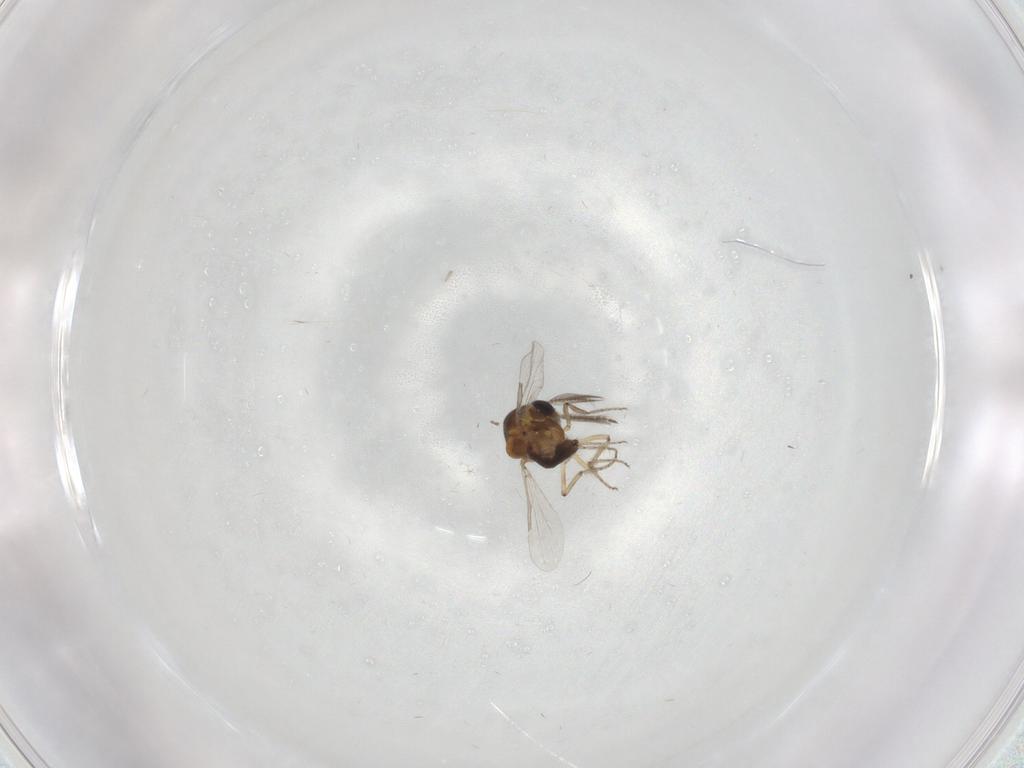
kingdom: Animalia
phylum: Arthropoda
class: Insecta
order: Diptera
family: Ceratopogonidae
